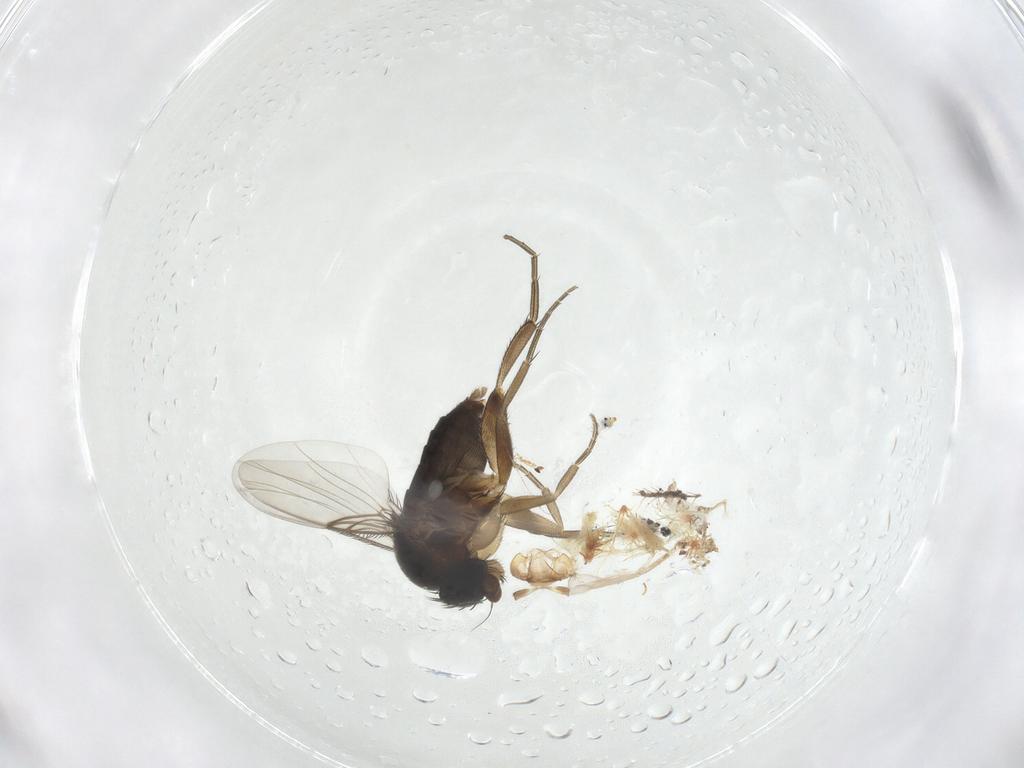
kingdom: Animalia
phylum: Arthropoda
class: Insecta
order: Diptera
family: Phoridae
